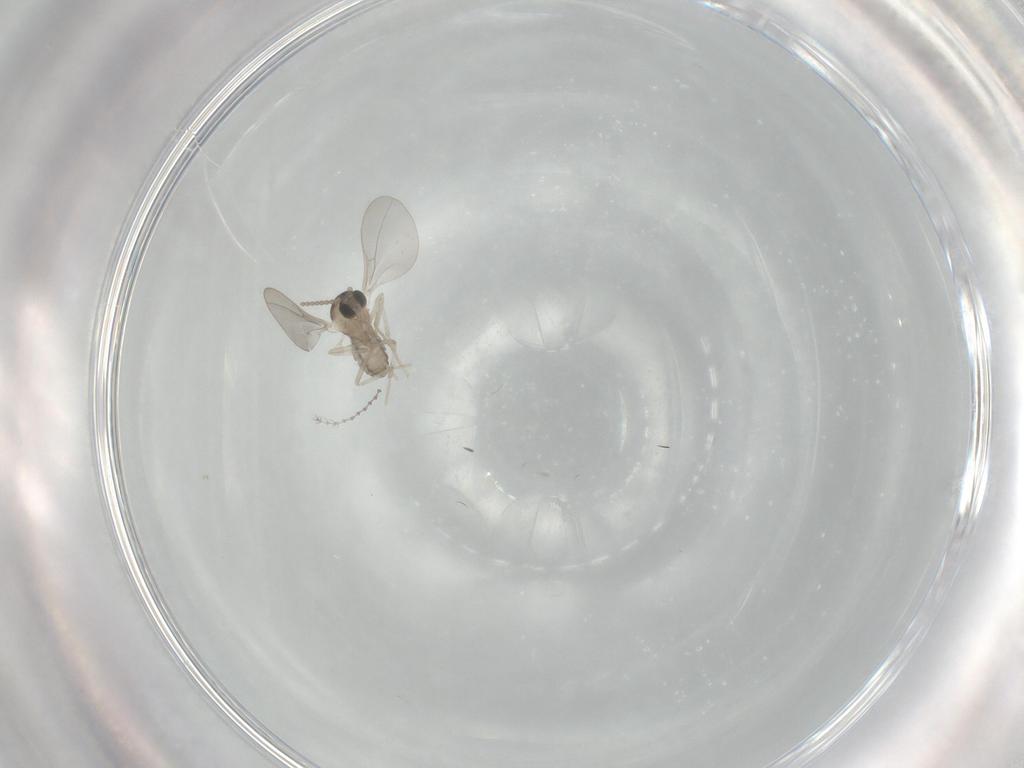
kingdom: Animalia
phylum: Arthropoda
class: Insecta
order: Diptera
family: Cecidomyiidae
